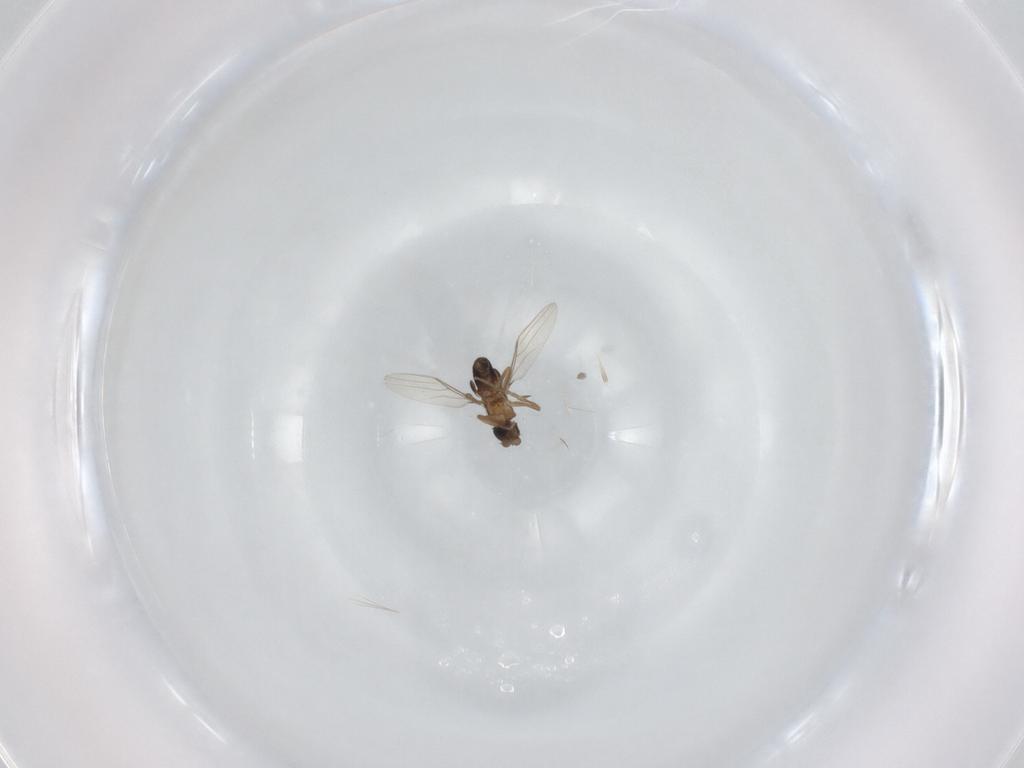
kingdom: Animalia
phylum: Arthropoda
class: Insecta
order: Diptera
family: Phoridae
